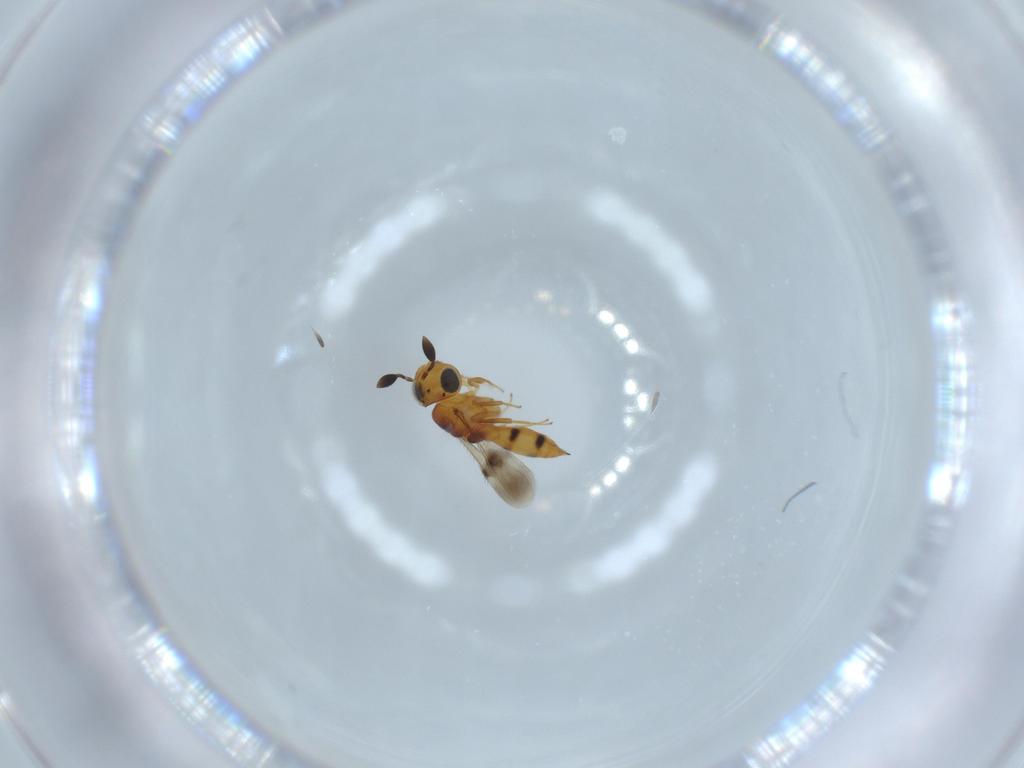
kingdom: Animalia
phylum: Arthropoda
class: Insecta
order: Hymenoptera
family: Scelionidae
